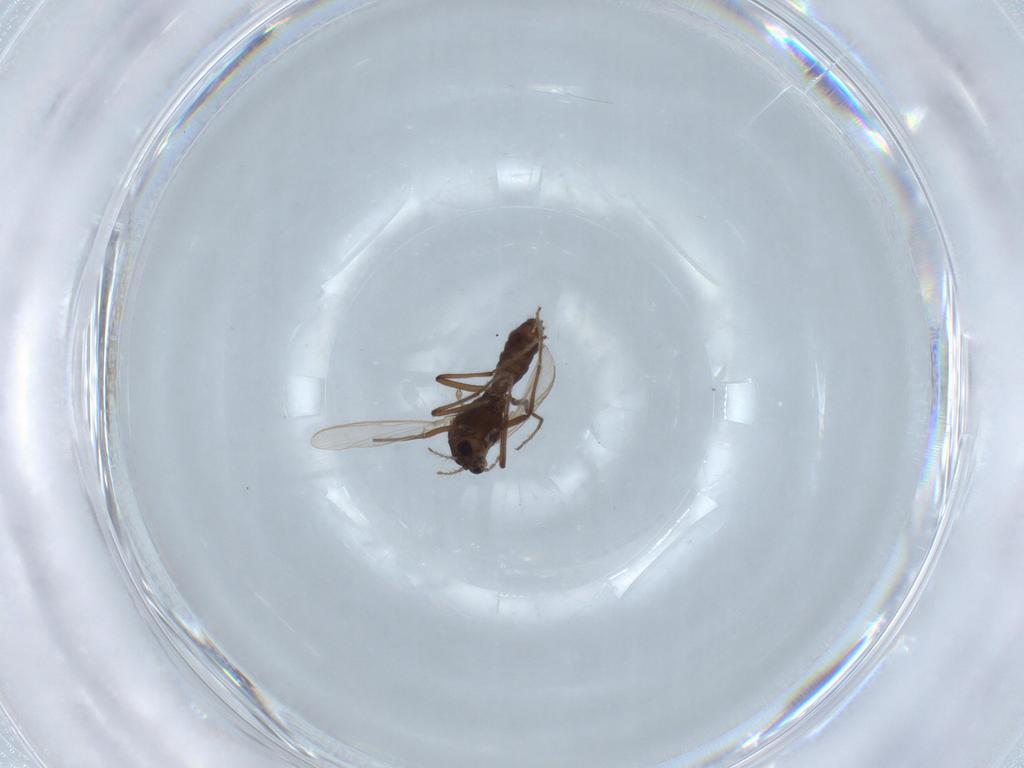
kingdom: Animalia
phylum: Arthropoda
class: Insecta
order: Diptera
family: Chironomidae
